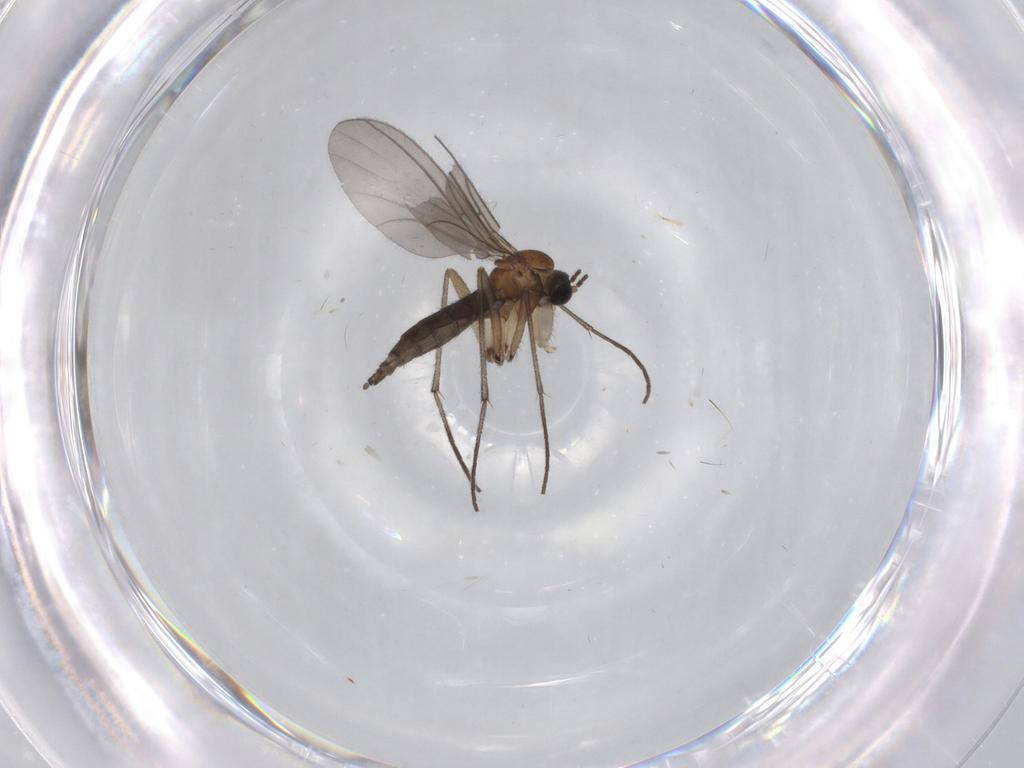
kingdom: Animalia
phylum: Arthropoda
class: Insecta
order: Diptera
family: Sciaridae
